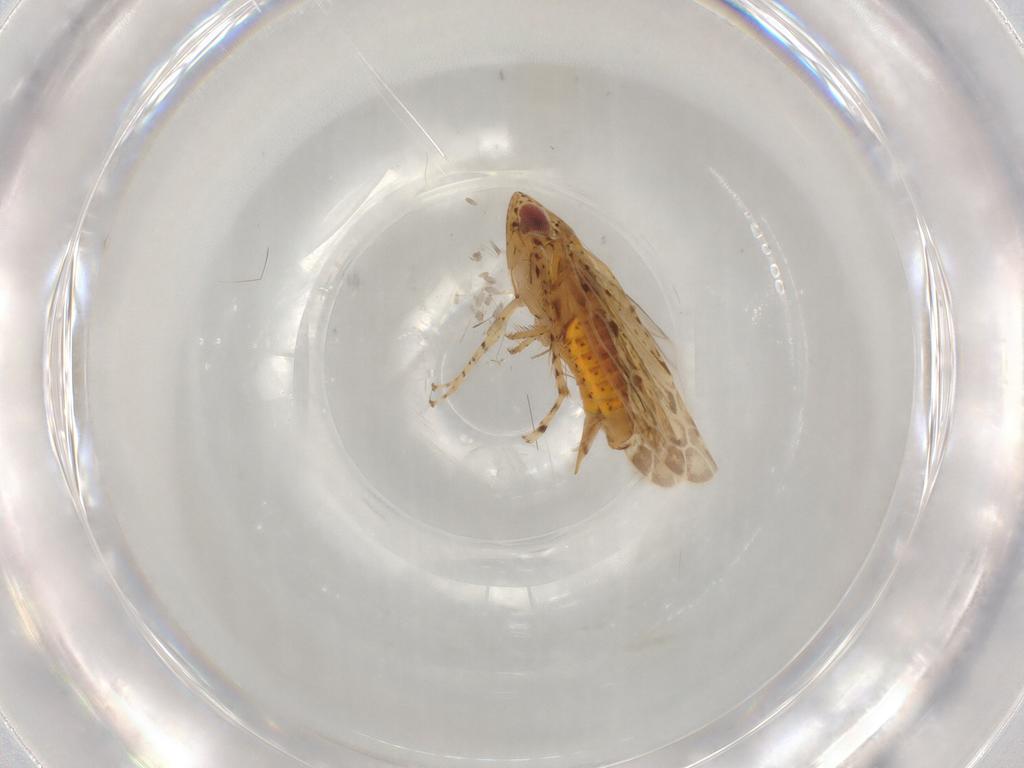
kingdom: Animalia
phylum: Arthropoda
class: Insecta
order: Hemiptera
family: Cicadellidae
